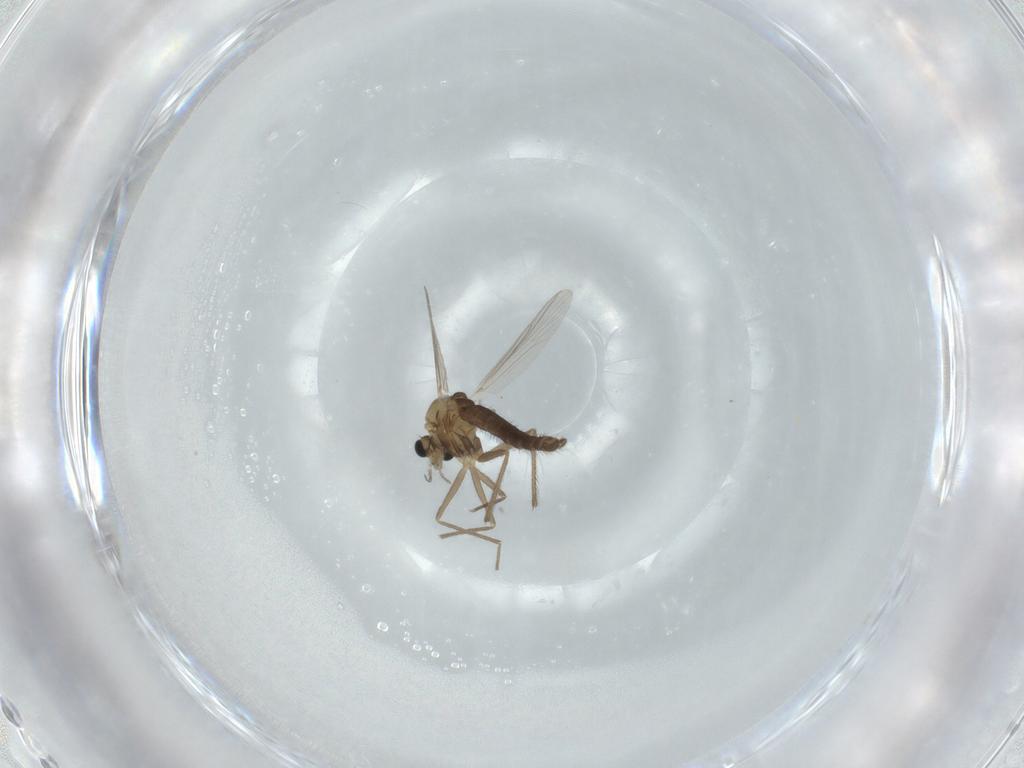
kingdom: Animalia
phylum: Arthropoda
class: Insecta
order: Diptera
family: Chironomidae
